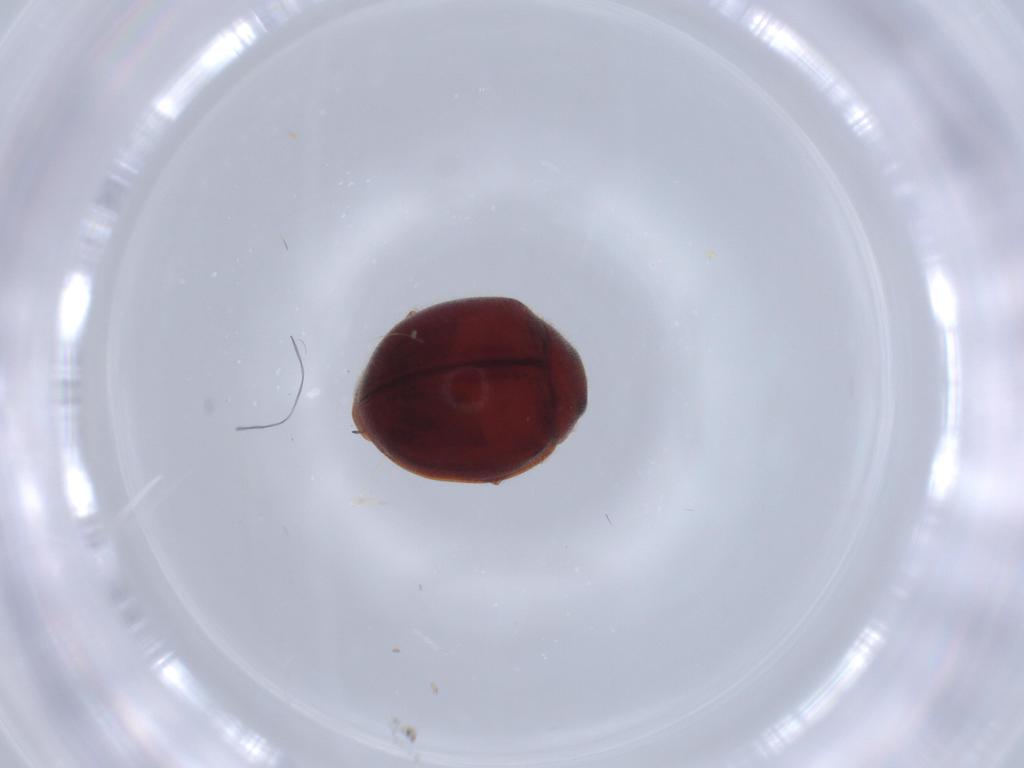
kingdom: Animalia
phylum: Arthropoda
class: Insecta
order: Coleoptera
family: Coccinellidae
